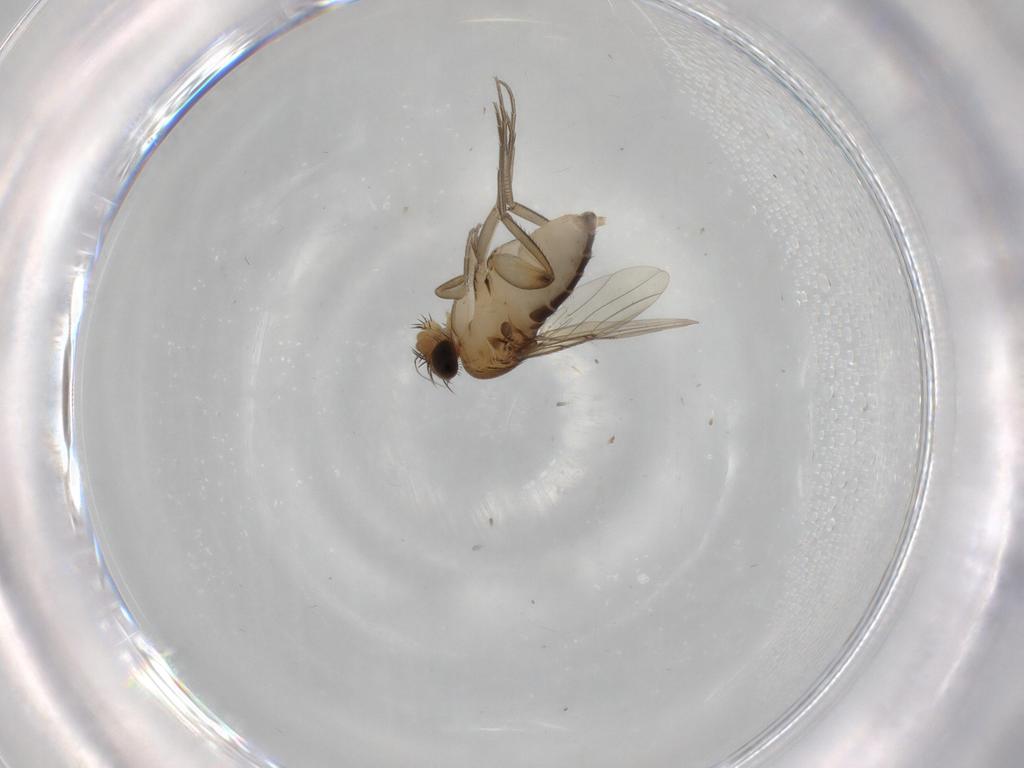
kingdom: Animalia
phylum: Arthropoda
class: Insecta
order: Diptera
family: Phoridae
